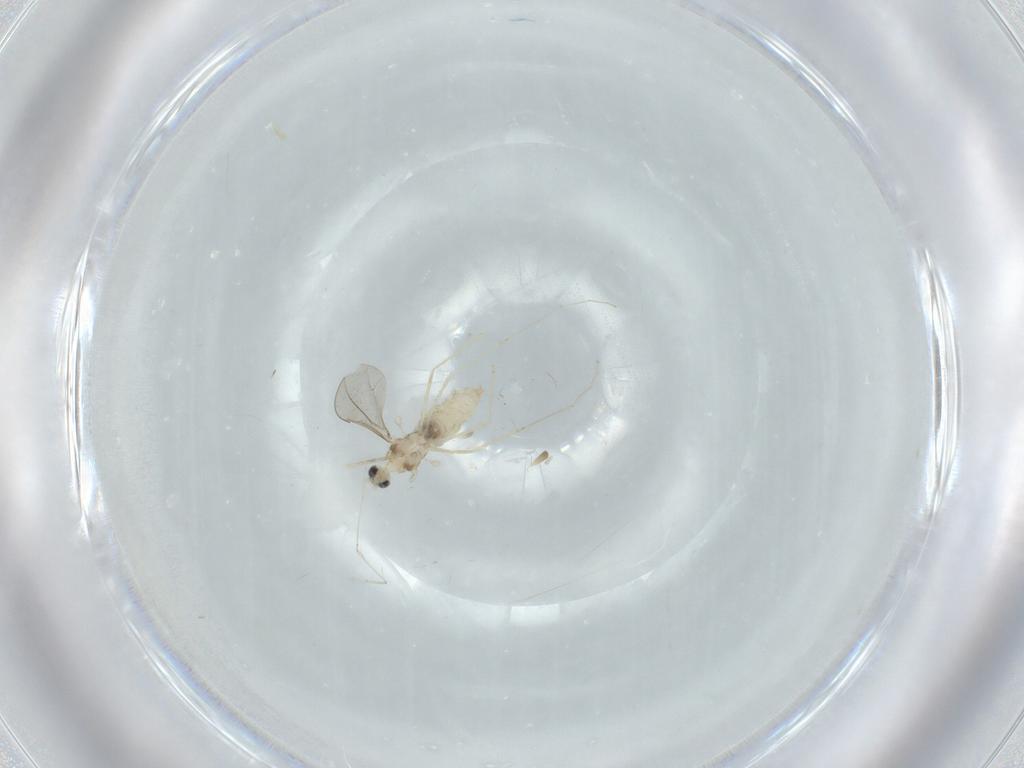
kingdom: Animalia
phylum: Arthropoda
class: Insecta
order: Diptera
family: Cecidomyiidae
